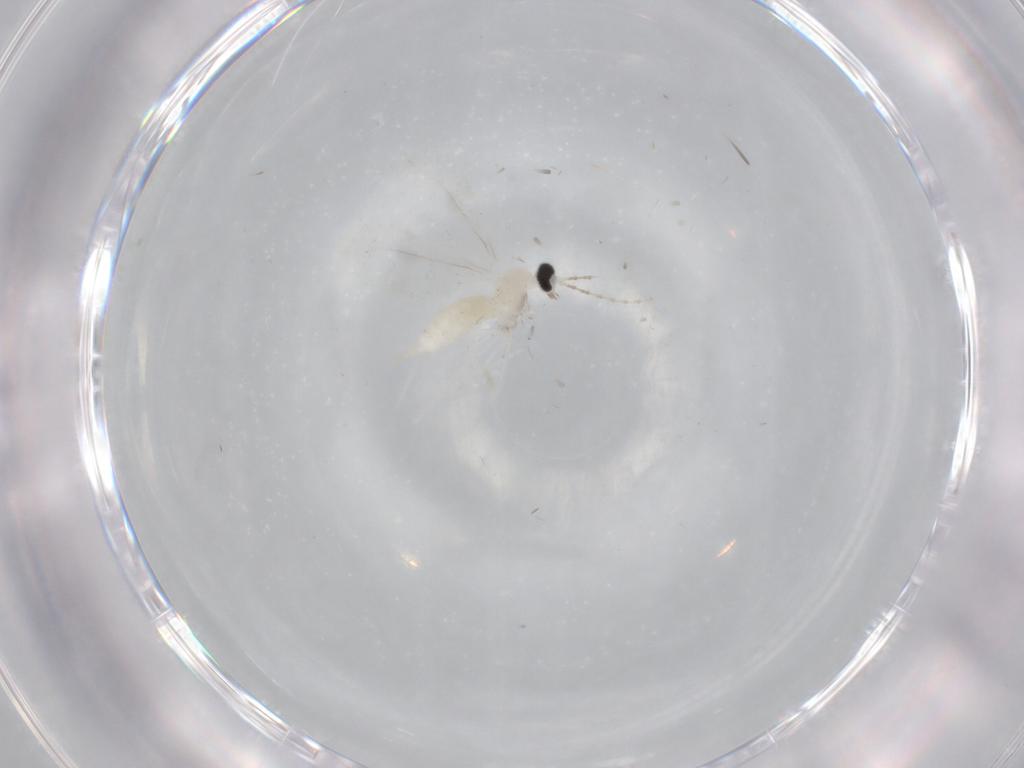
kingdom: Animalia
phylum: Arthropoda
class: Insecta
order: Diptera
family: Cecidomyiidae
